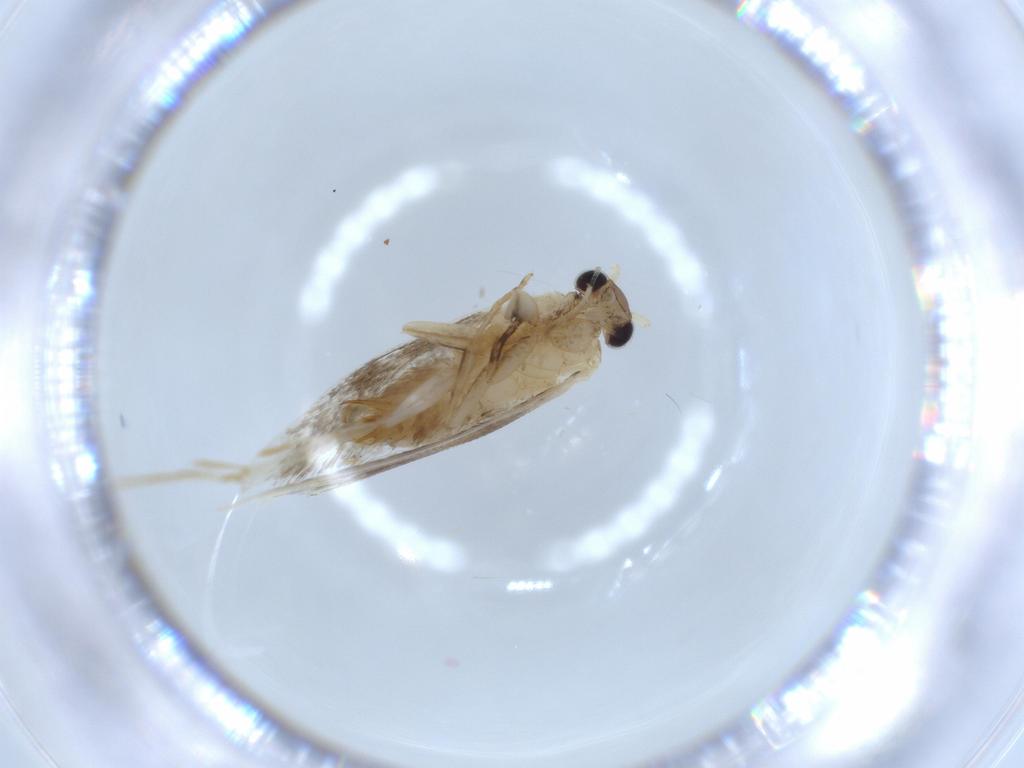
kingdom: Animalia
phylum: Arthropoda
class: Insecta
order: Lepidoptera
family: Tineidae
